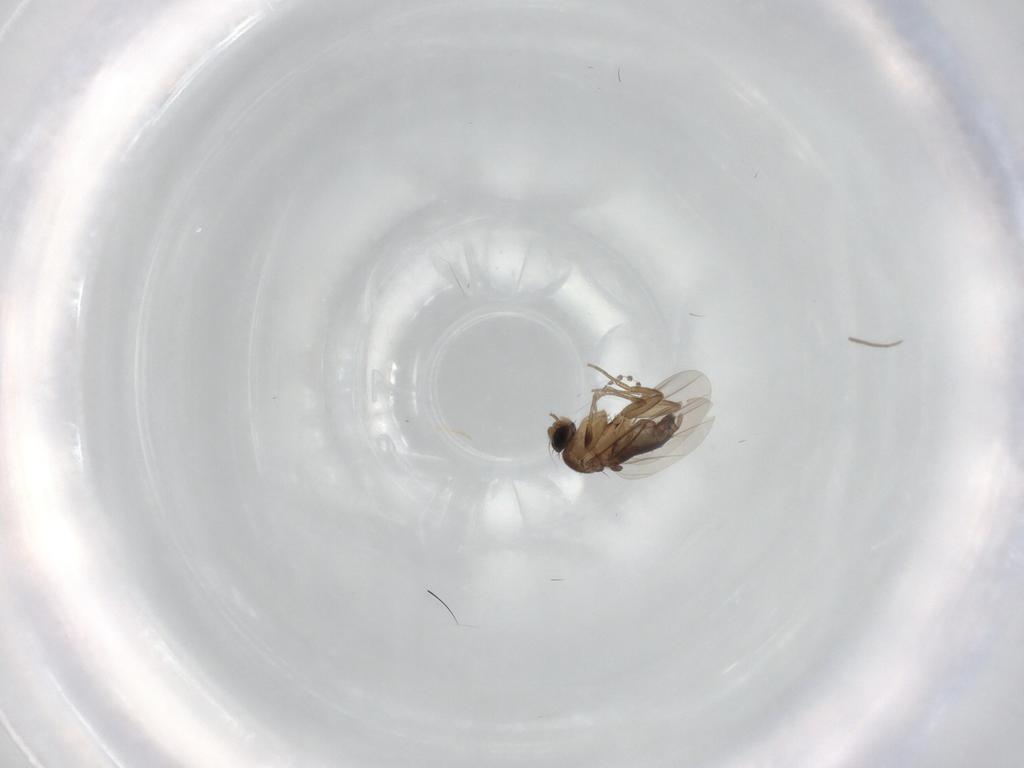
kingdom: Animalia
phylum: Arthropoda
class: Insecta
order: Diptera
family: Phoridae
